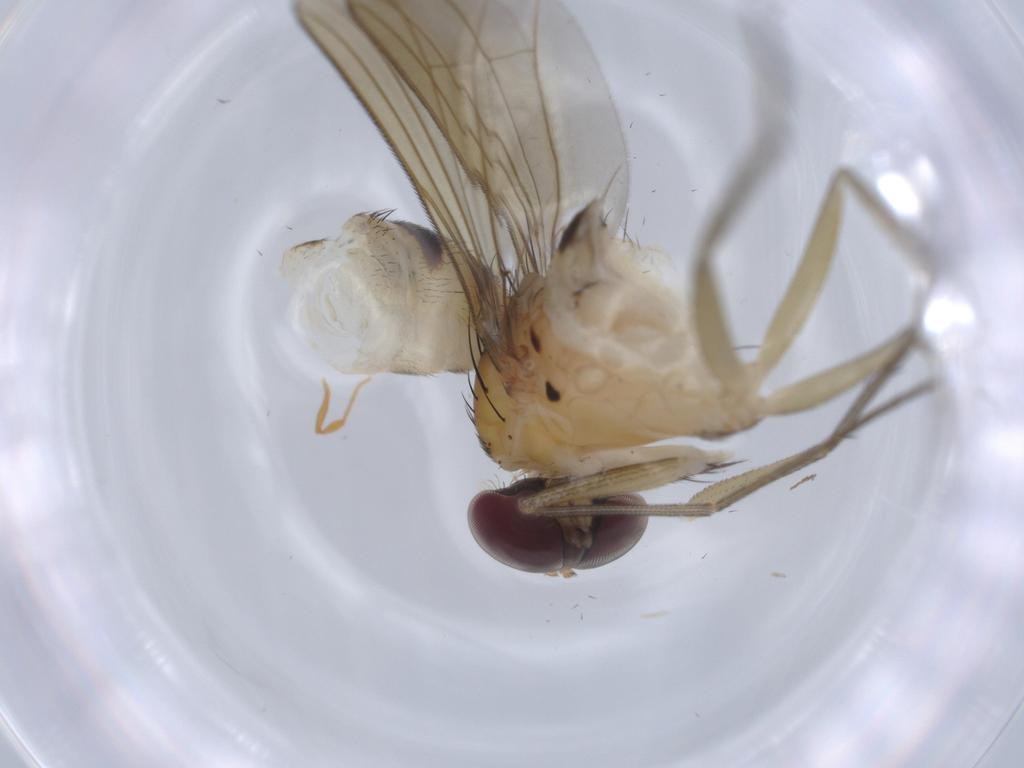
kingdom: Animalia
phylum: Arthropoda
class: Insecta
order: Diptera
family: Dolichopodidae
